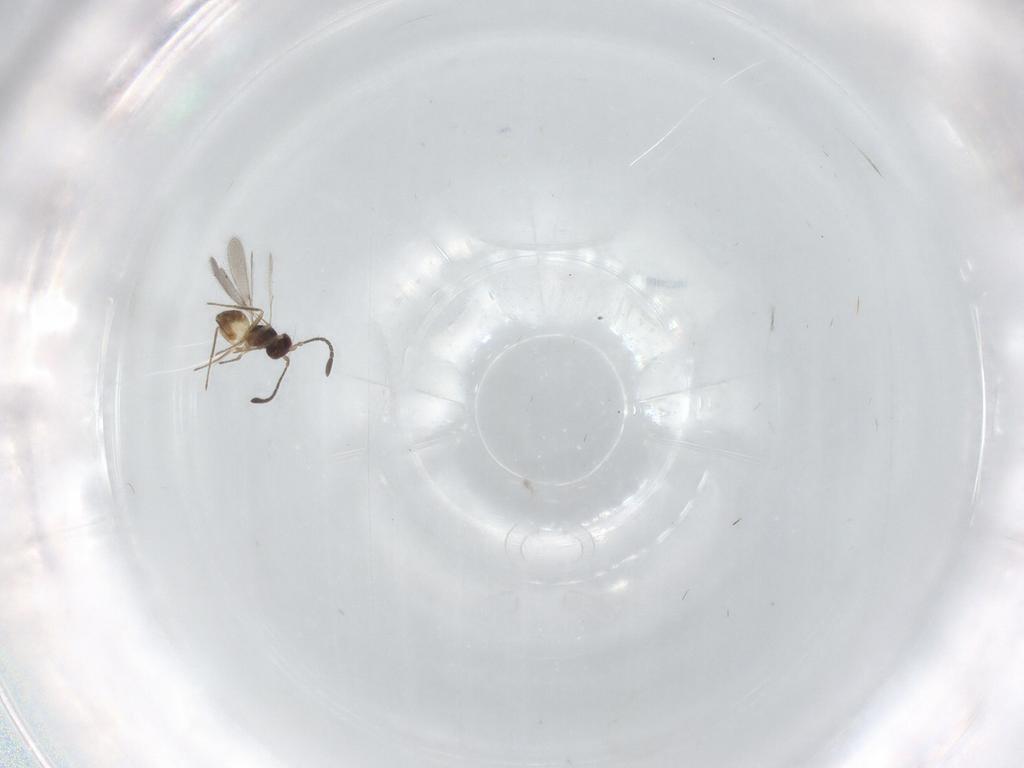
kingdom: Animalia
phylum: Arthropoda
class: Insecta
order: Hymenoptera
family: Mymaridae
